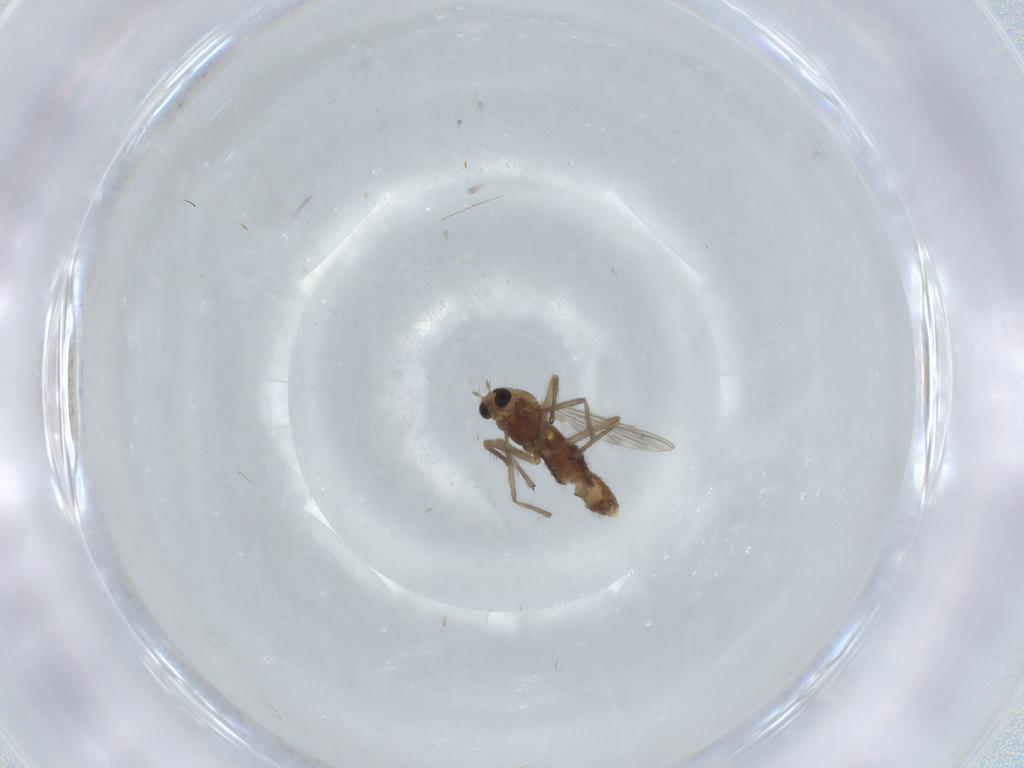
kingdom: Animalia
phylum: Arthropoda
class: Insecta
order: Diptera
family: Chironomidae
